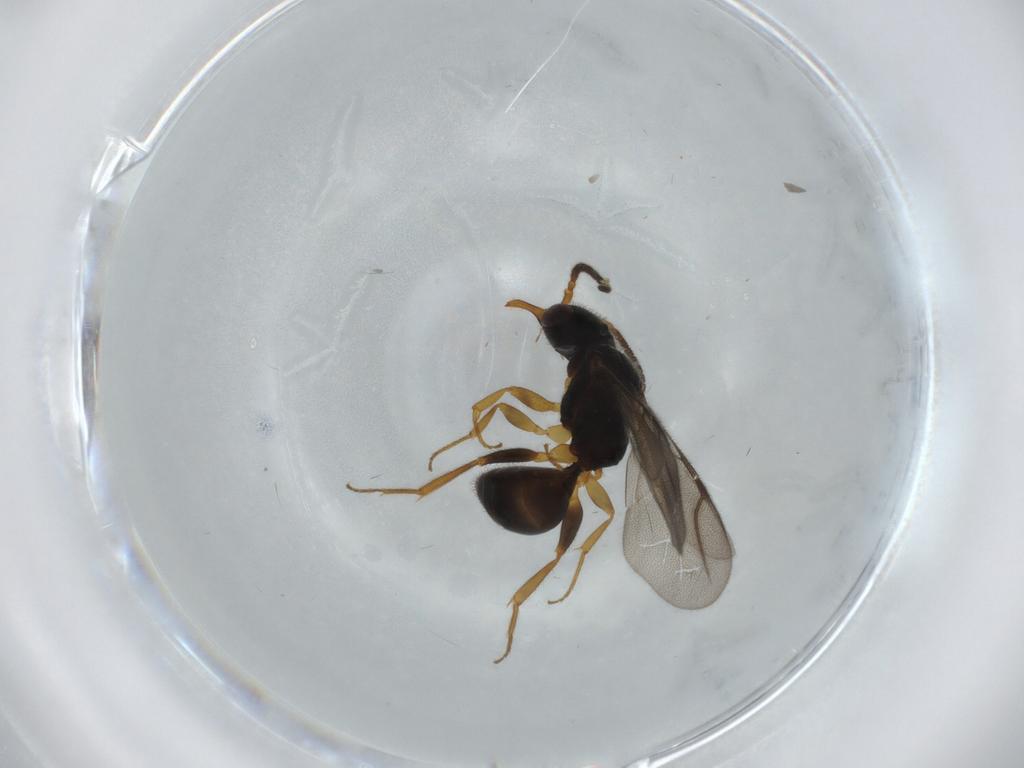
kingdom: Animalia
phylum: Arthropoda
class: Insecta
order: Hymenoptera
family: Bethylidae
